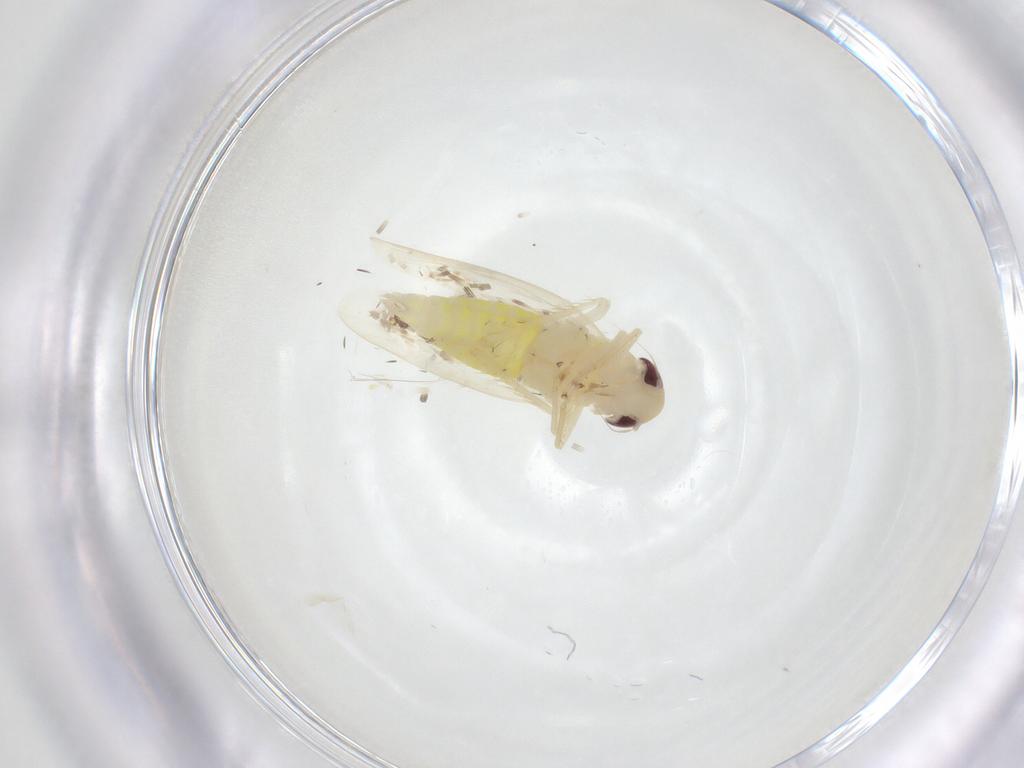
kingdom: Animalia
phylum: Arthropoda
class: Insecta
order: Hemiptera
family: Cicadellidae
